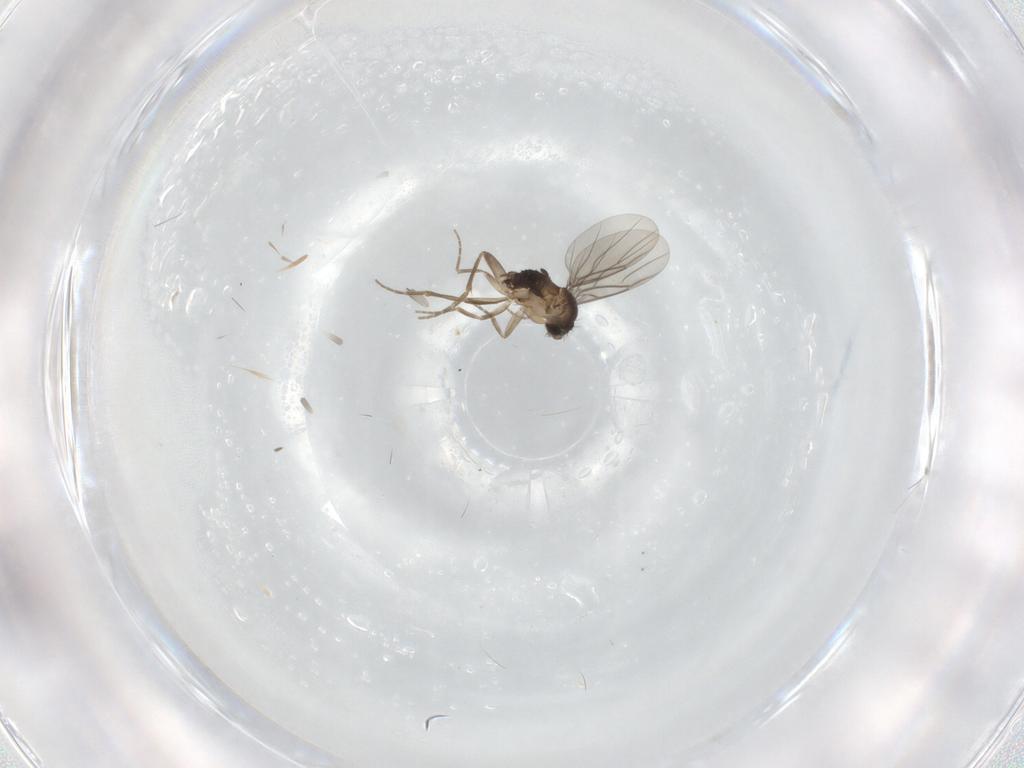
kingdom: Animalia
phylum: Arthropoda
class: Insecta
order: Diptera
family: Phoridae
